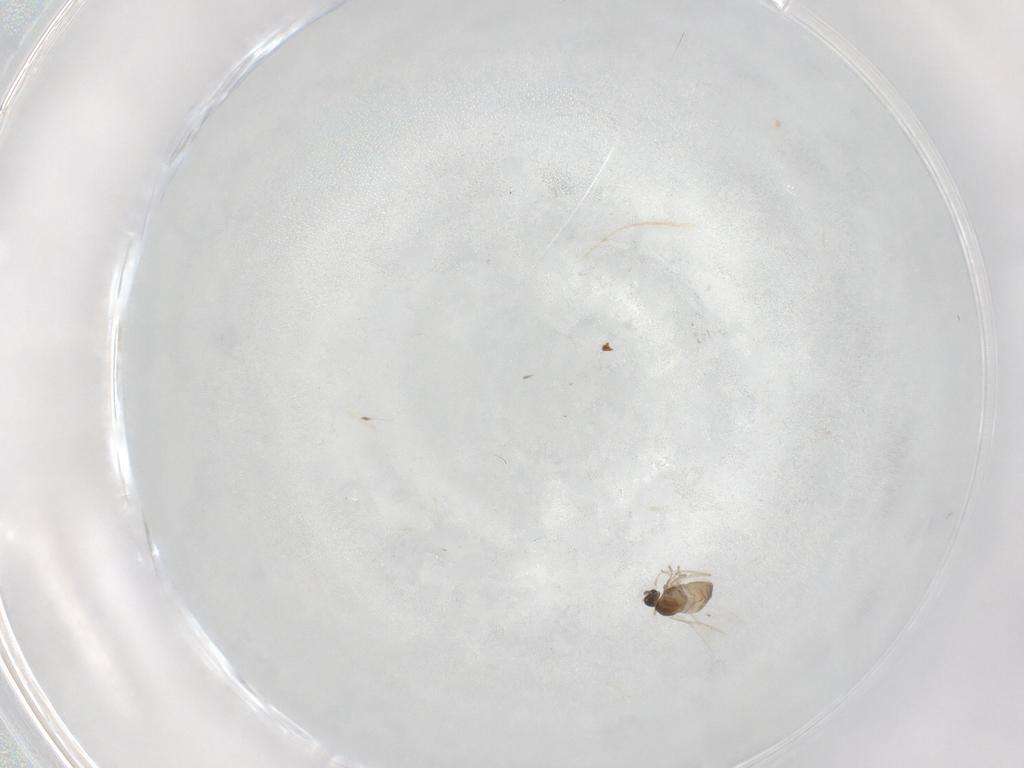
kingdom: Animalia
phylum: Arthropoda
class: Insecta
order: Diptera
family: Cecidomyiidae
